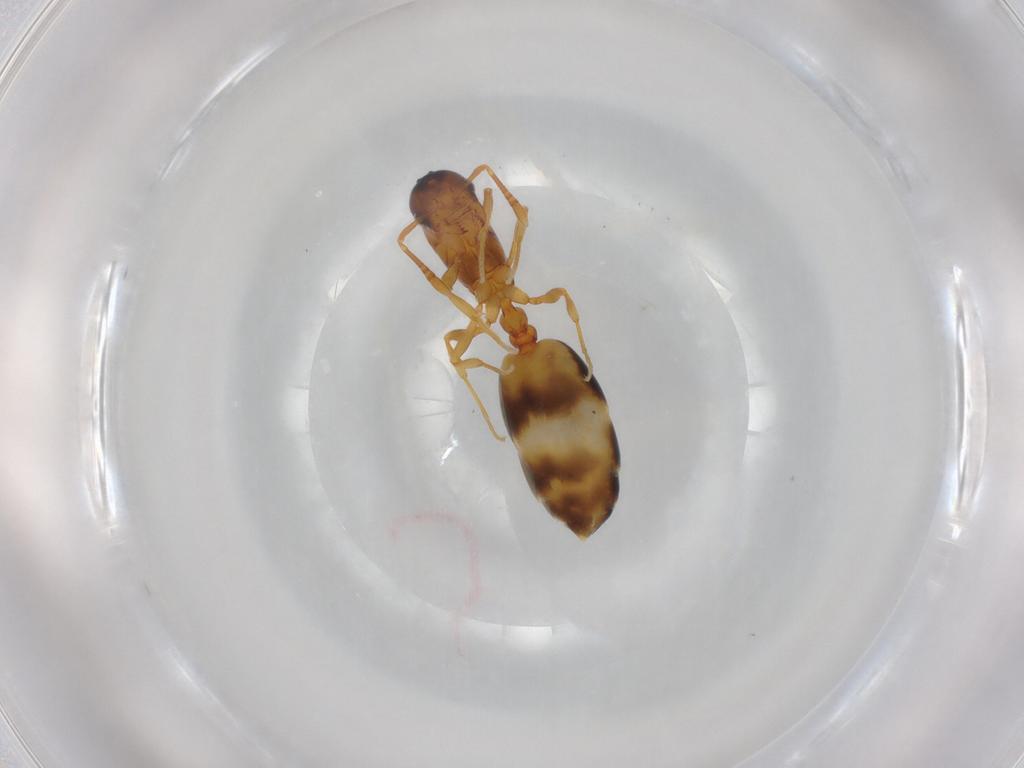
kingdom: Animalia
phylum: Arthropoda
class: Insecta
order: Hymenoptera
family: Formicidae
